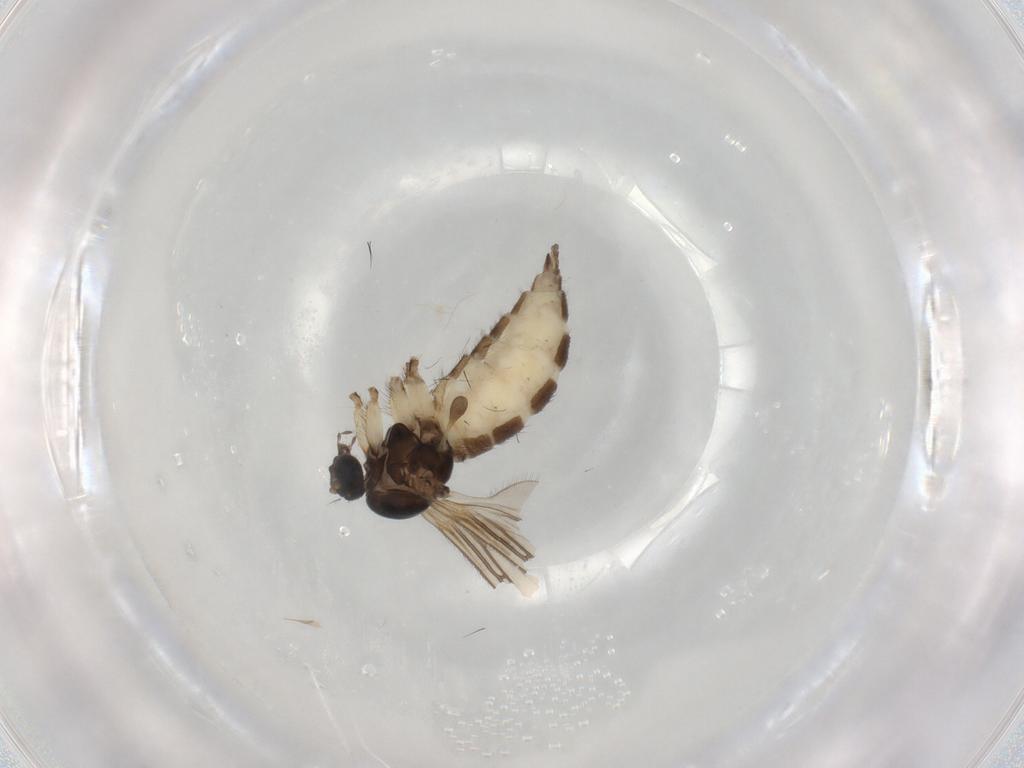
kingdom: Animalia
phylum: Arthropoda
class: Insecta
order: Diptera
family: Sciaridae
